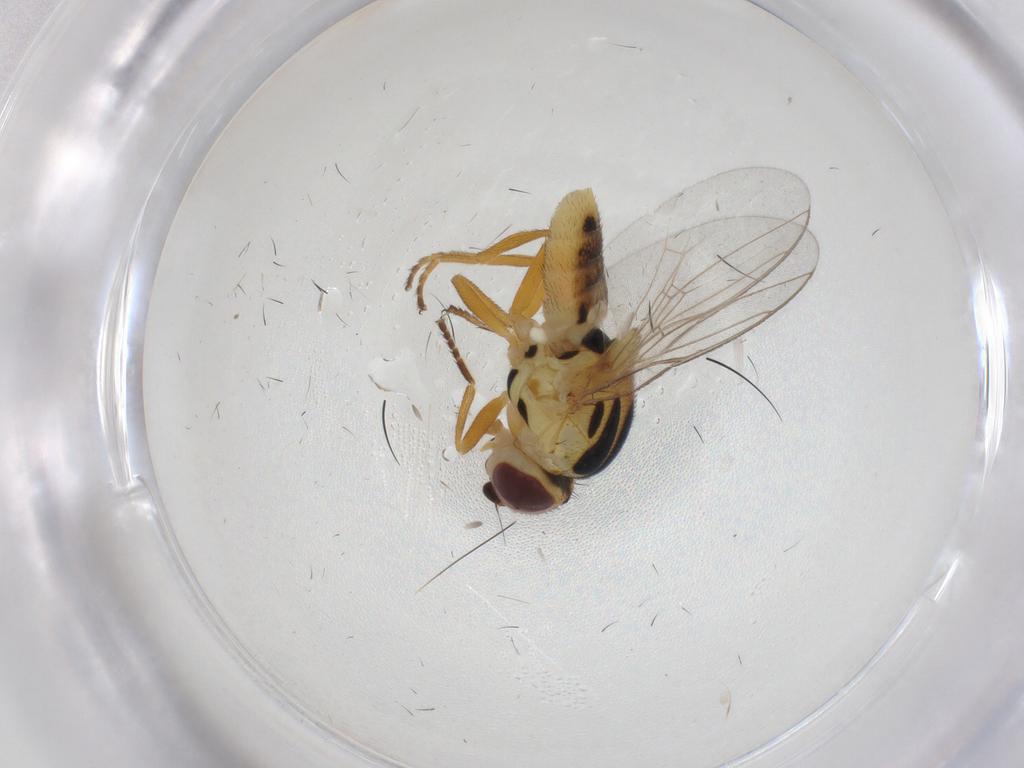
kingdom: Animalia
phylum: Arthropoda
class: Insecta
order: Diptera
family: Chloropidae
